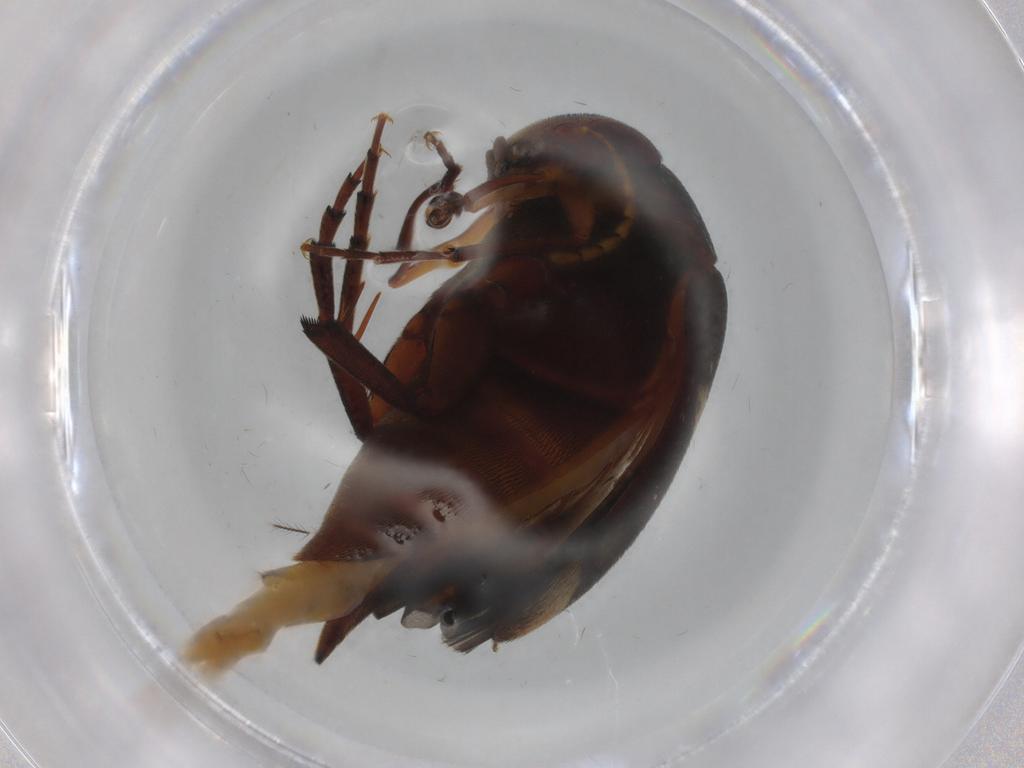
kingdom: Animalia
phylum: Arthropoda
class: Insecta
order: Coleoptera
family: Mordellidae
